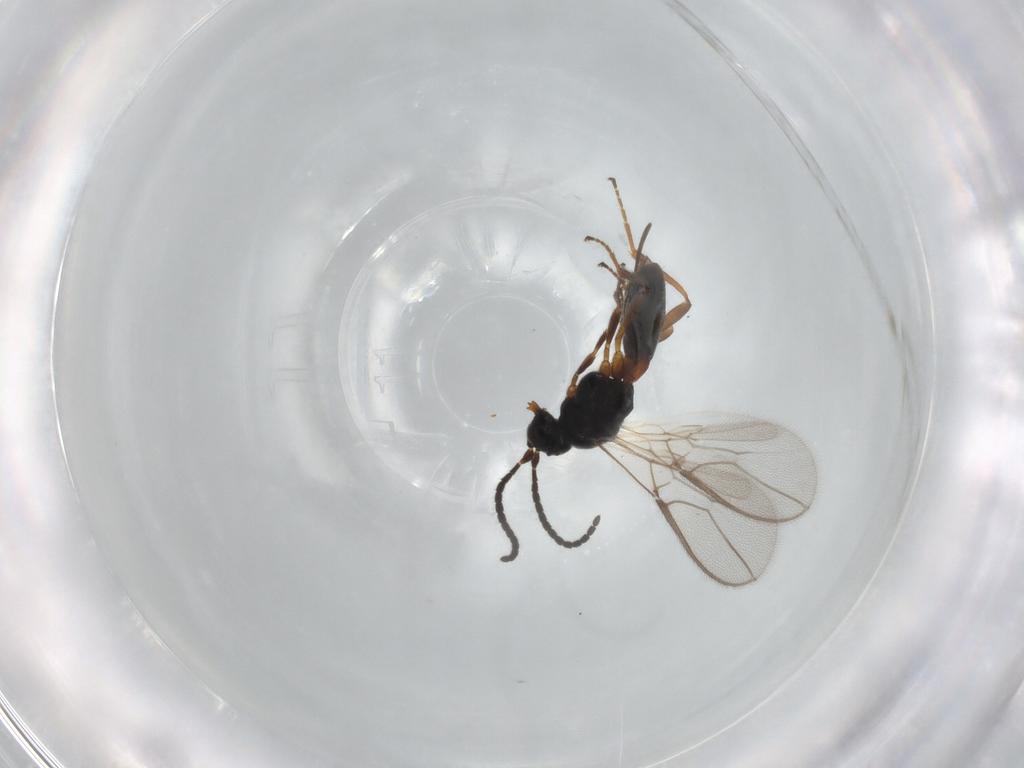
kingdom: Animalia
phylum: Arthropoda
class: Insecta
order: Hymenoptera
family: Braconidae
